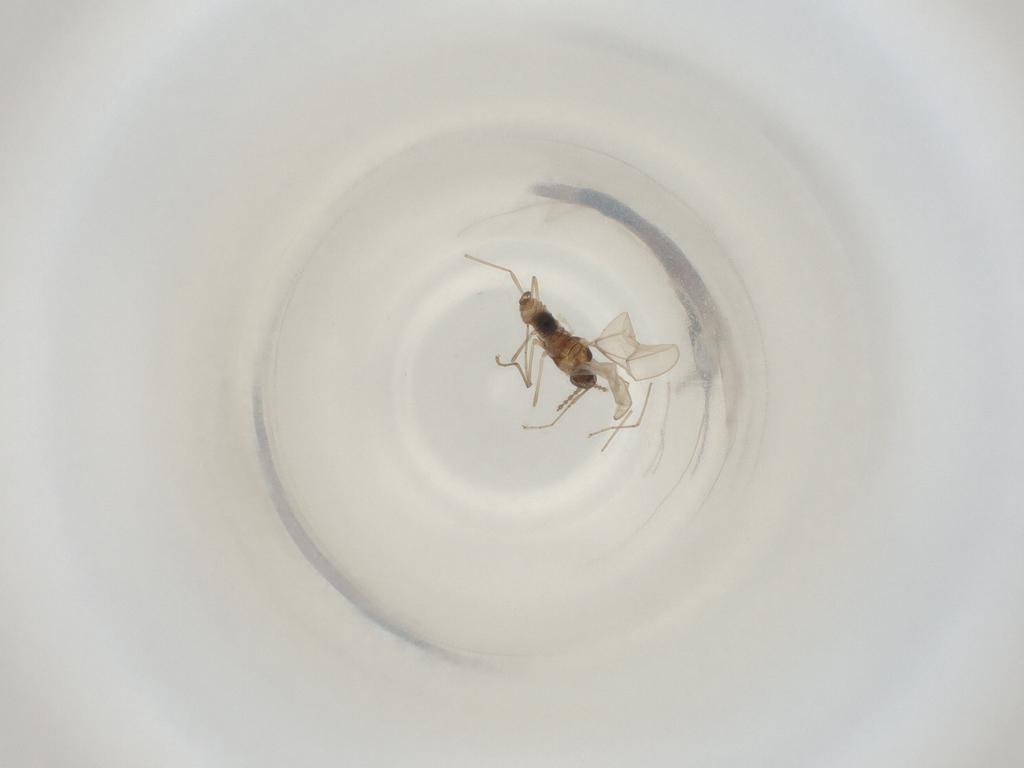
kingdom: Animalia
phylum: Arthropoda
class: Insecta
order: Diptera
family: Cecidomyiidae
